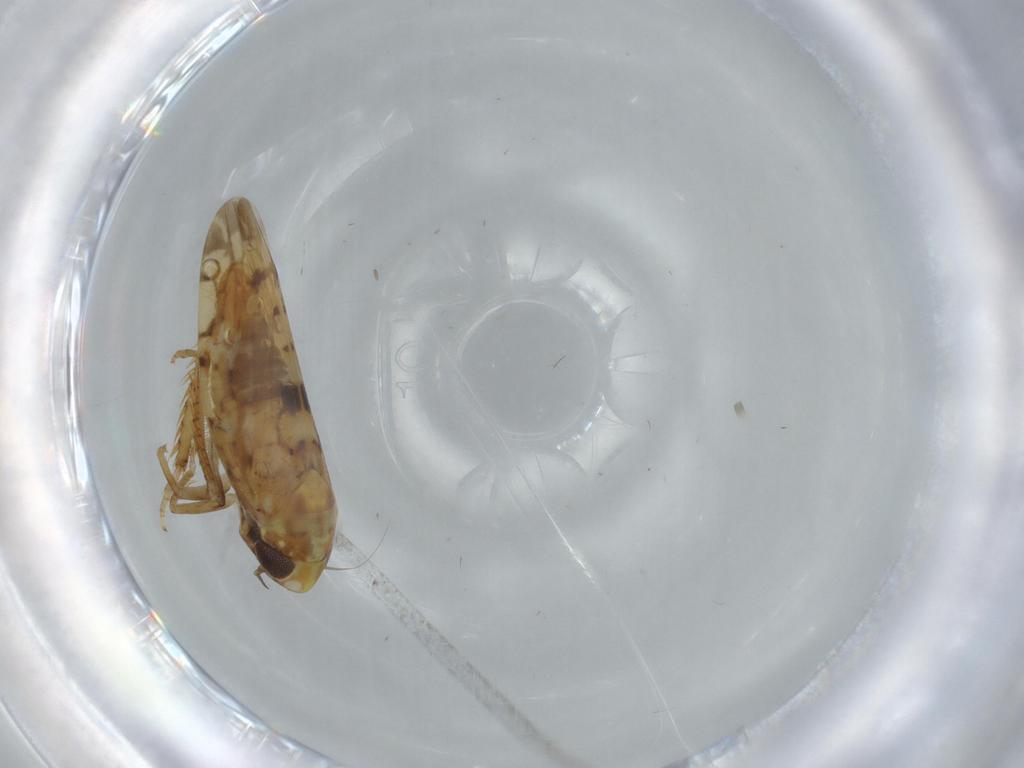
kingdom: Animalia
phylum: Arthropoda
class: Insecta
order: Hemiptera
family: Cicadellidae
